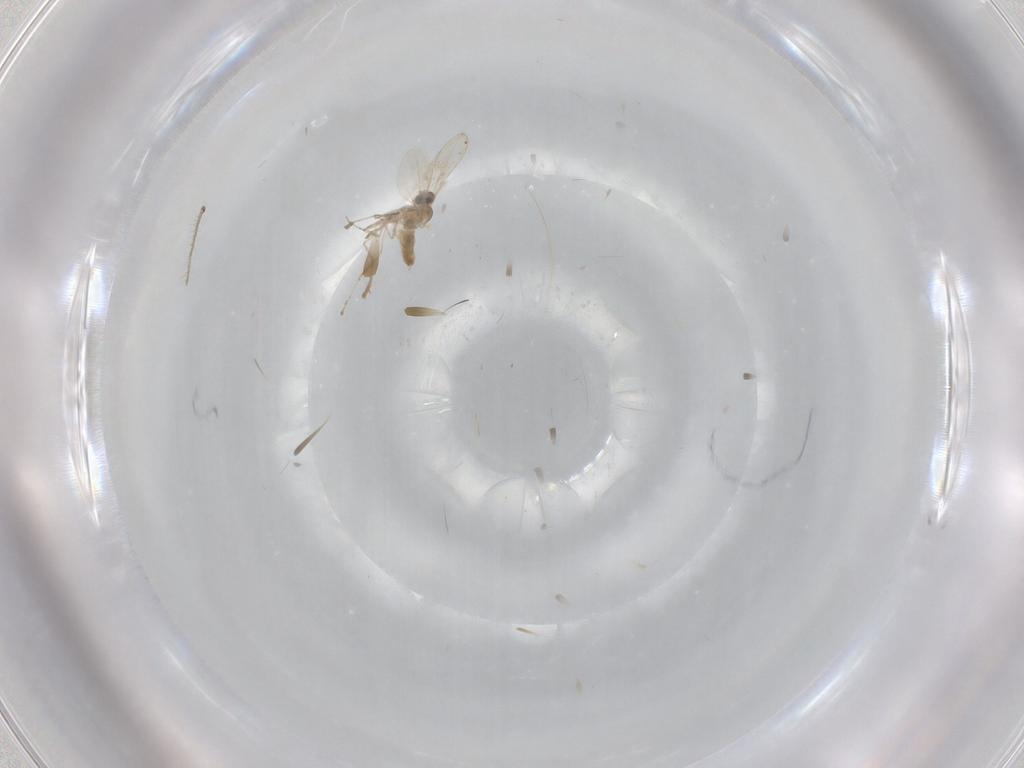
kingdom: Animalia
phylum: Arthropoda
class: Insecta
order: Diptera
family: Cecidomyiidae
